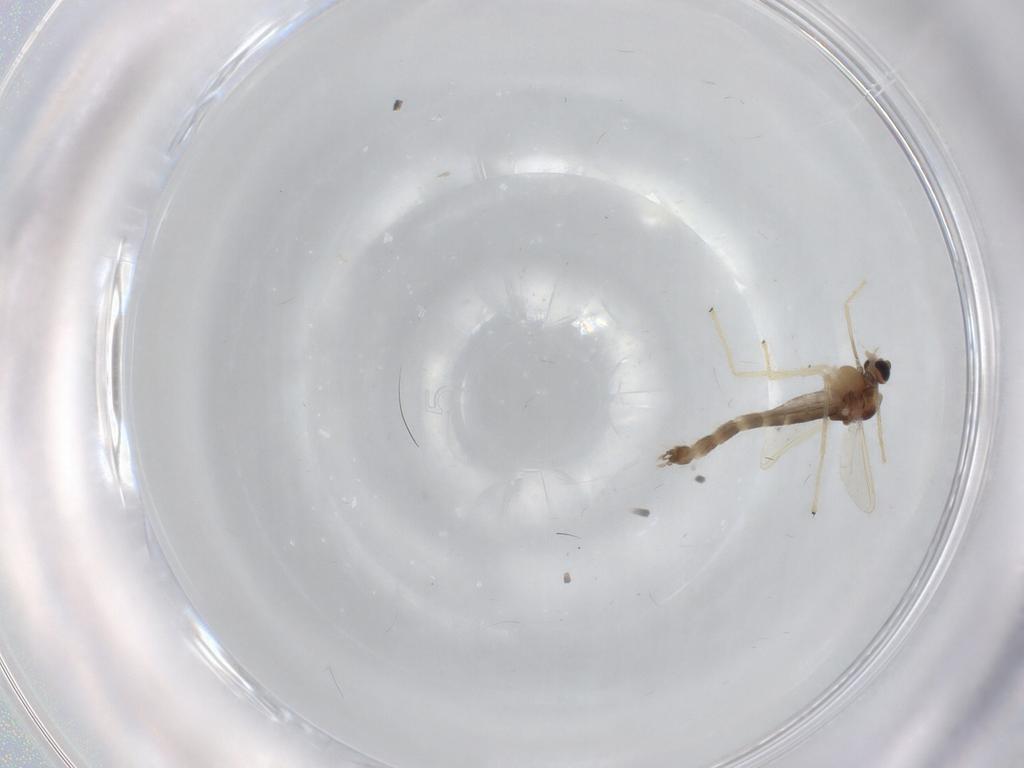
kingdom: Animalia
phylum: Arthropoda
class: Insecta
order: Diptera
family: Chironomidae
